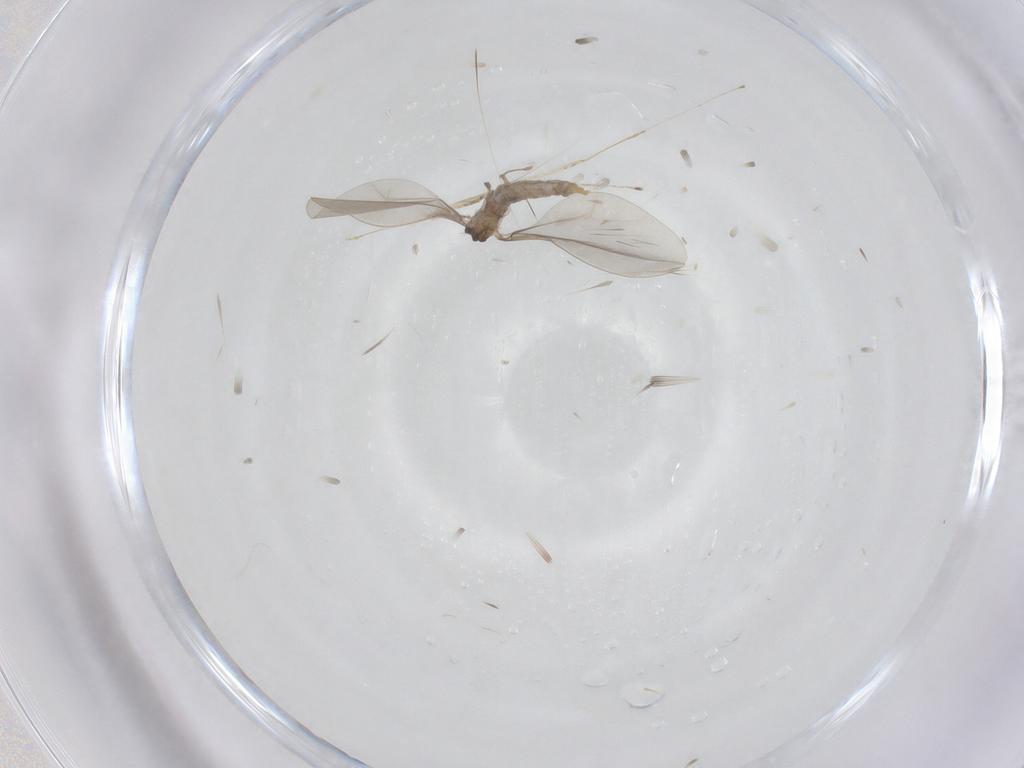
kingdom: Animalia
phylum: Arthropoda
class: Insecta
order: Diptera
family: Cecidomyiidae
